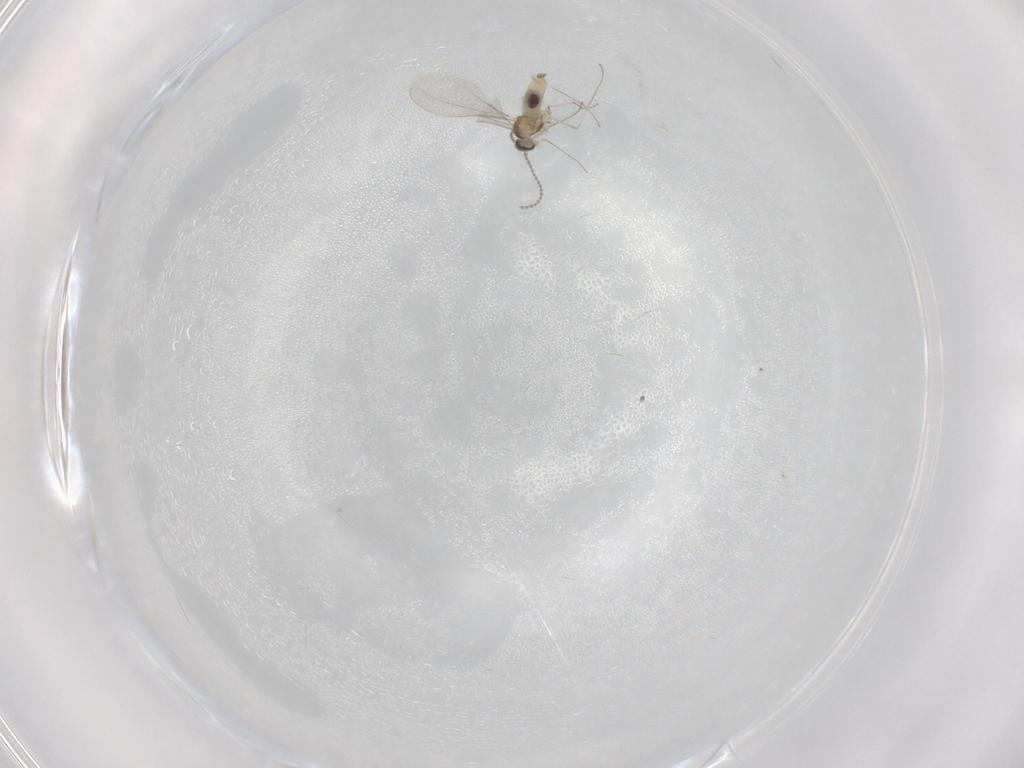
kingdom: Animalia
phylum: Arthropoda
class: Insecta
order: Diptera
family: Cecidomyiidae
